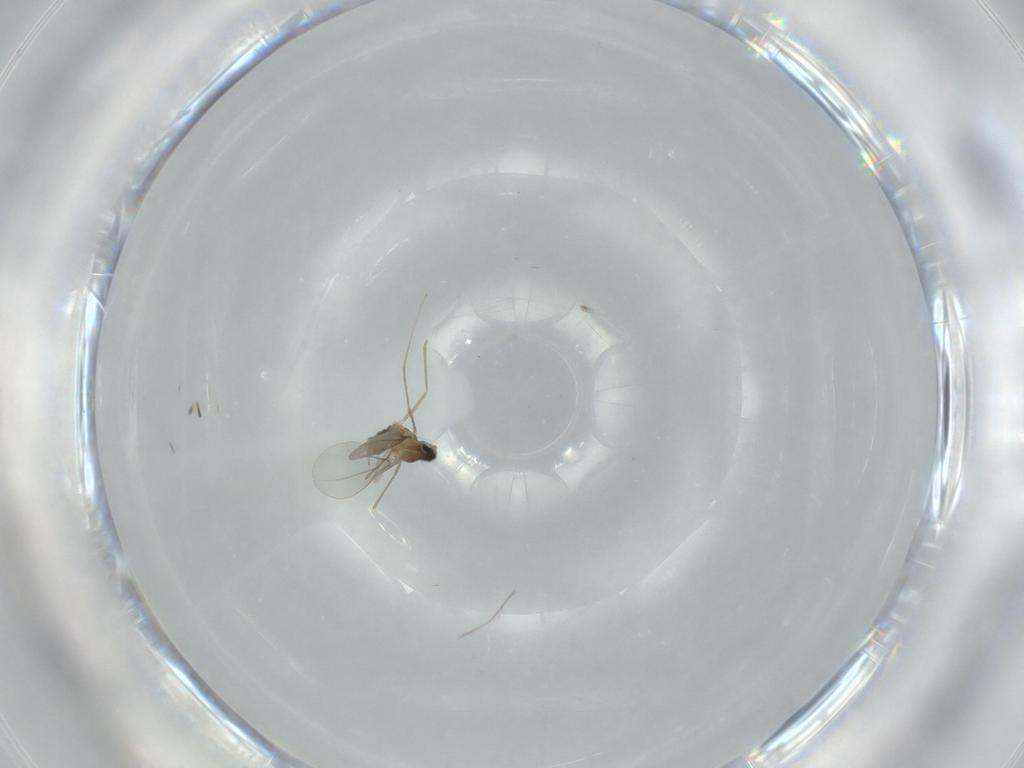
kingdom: Animalia
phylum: Arthropoda
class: Insecta
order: Diptera
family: Cecidomyiidae
